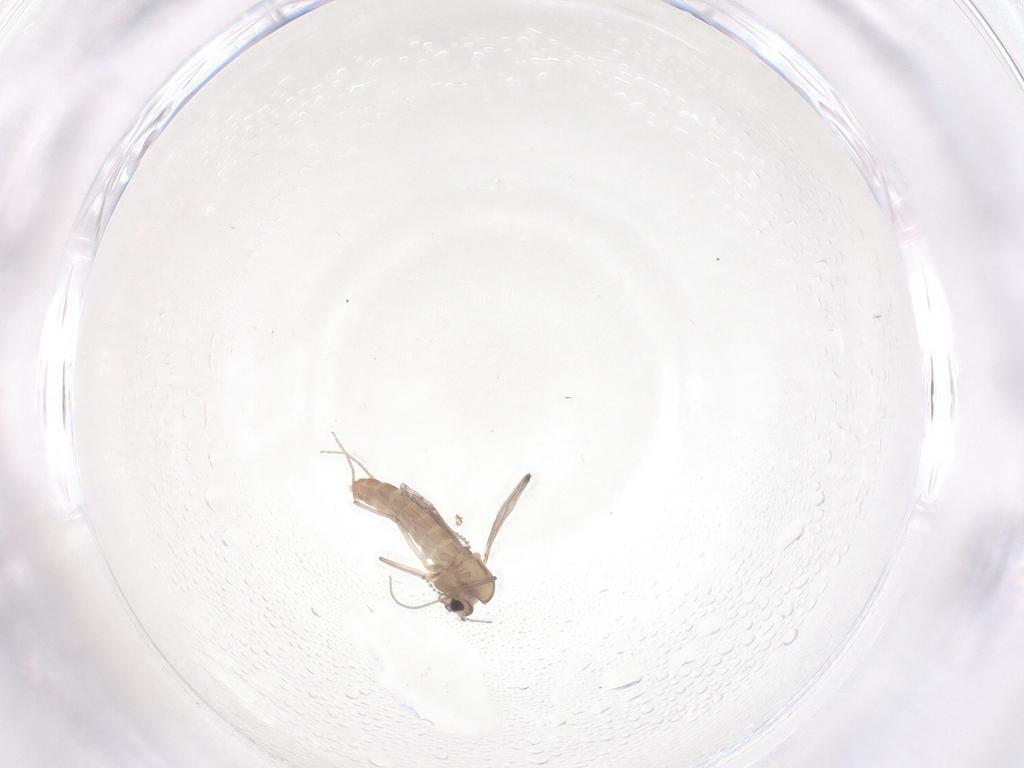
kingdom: Animalia
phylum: Arthropoda
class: Insecta
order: Diptera
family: Chironomidae
